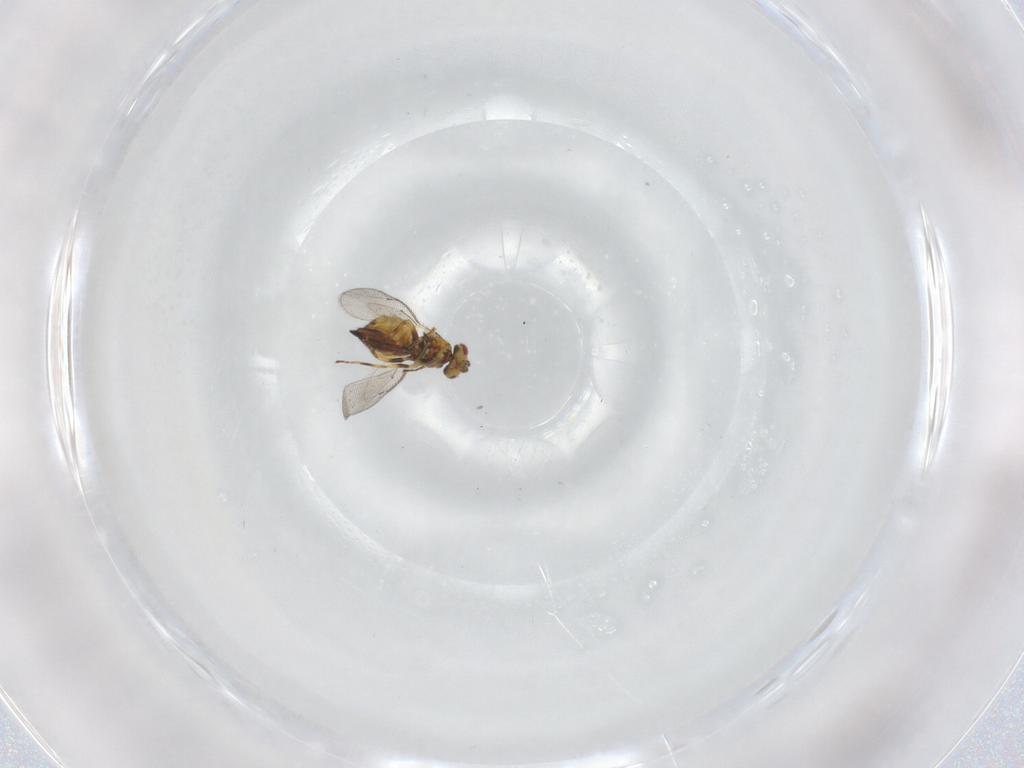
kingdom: Animalia
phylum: Arthropoda
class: Insecta
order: Hymenoptera
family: Eulophidae
